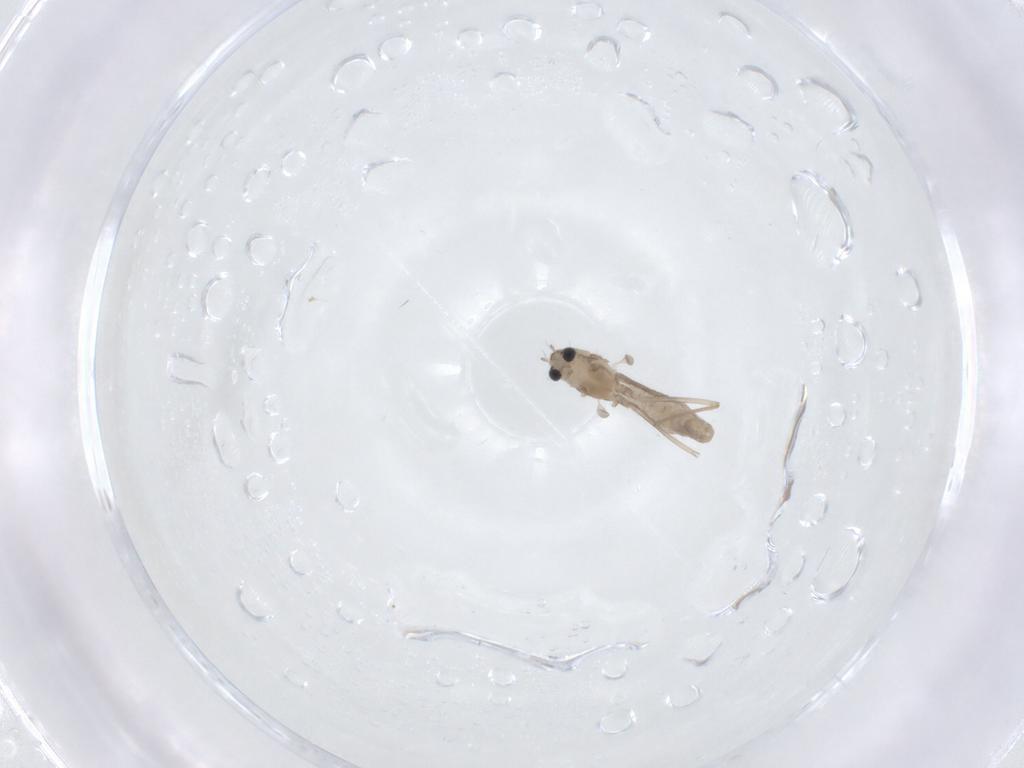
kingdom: Animalia
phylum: Arthropoda
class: Insecta
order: Diptera
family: Chironomidae
